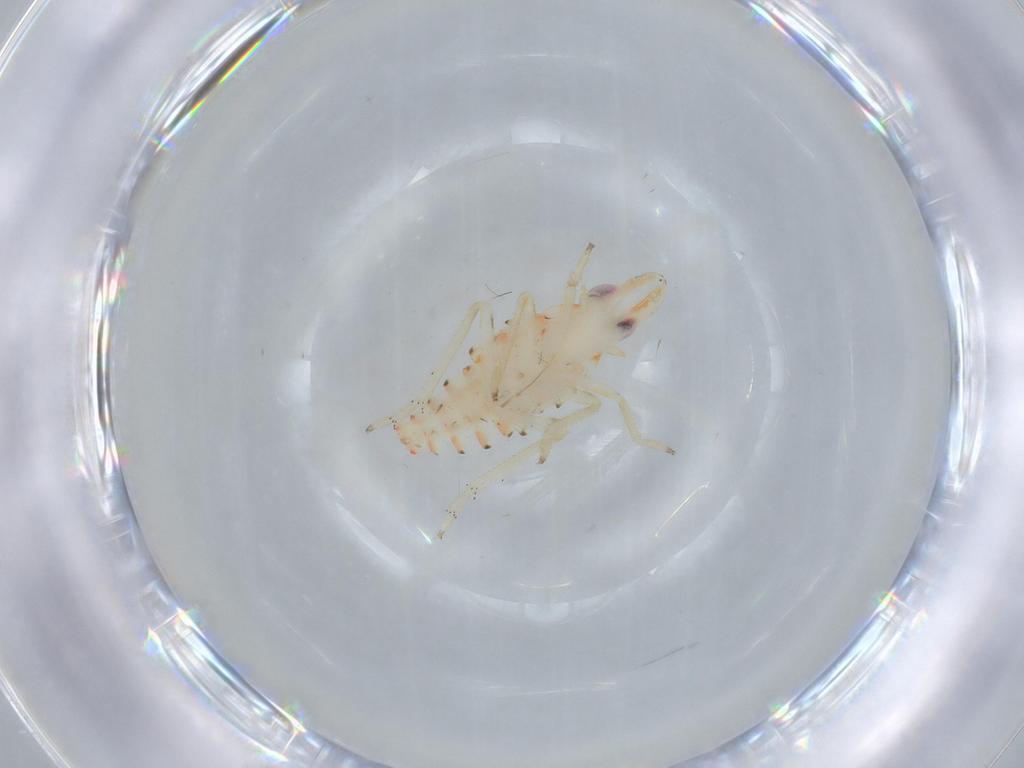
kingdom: Animalia
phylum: Arthropoda
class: Insecta
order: Hemiptera
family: Tropiduchidae
